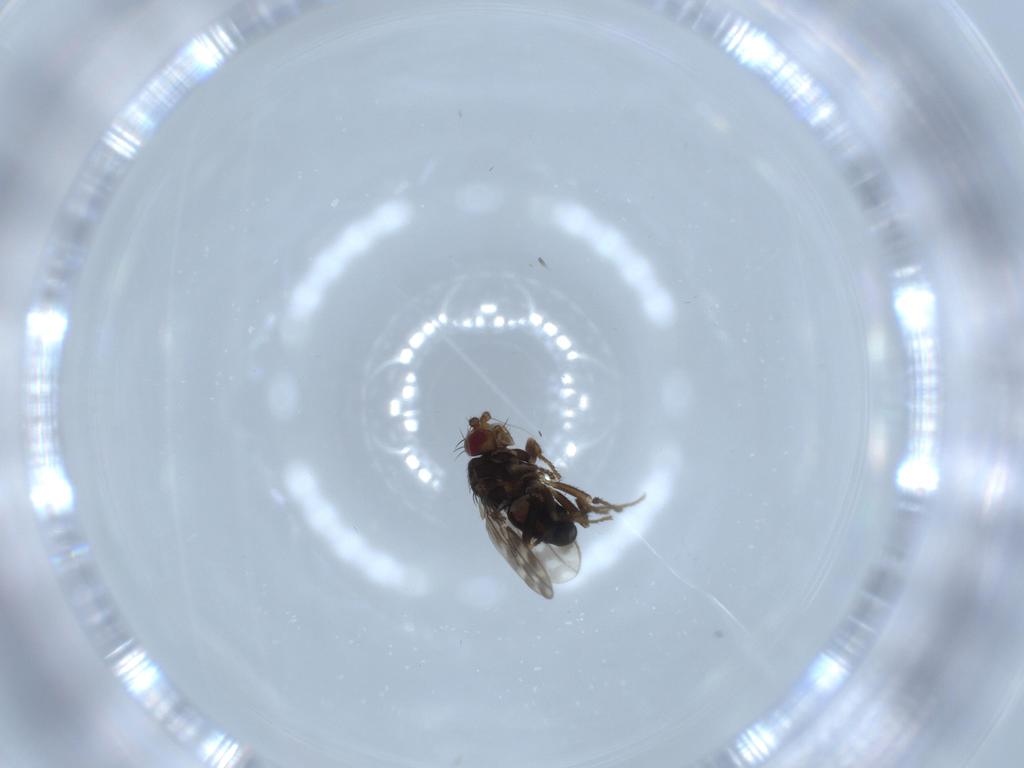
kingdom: Animalia
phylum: Arthropoda
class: Insecta
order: Diptera
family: Sphaeroceridae
